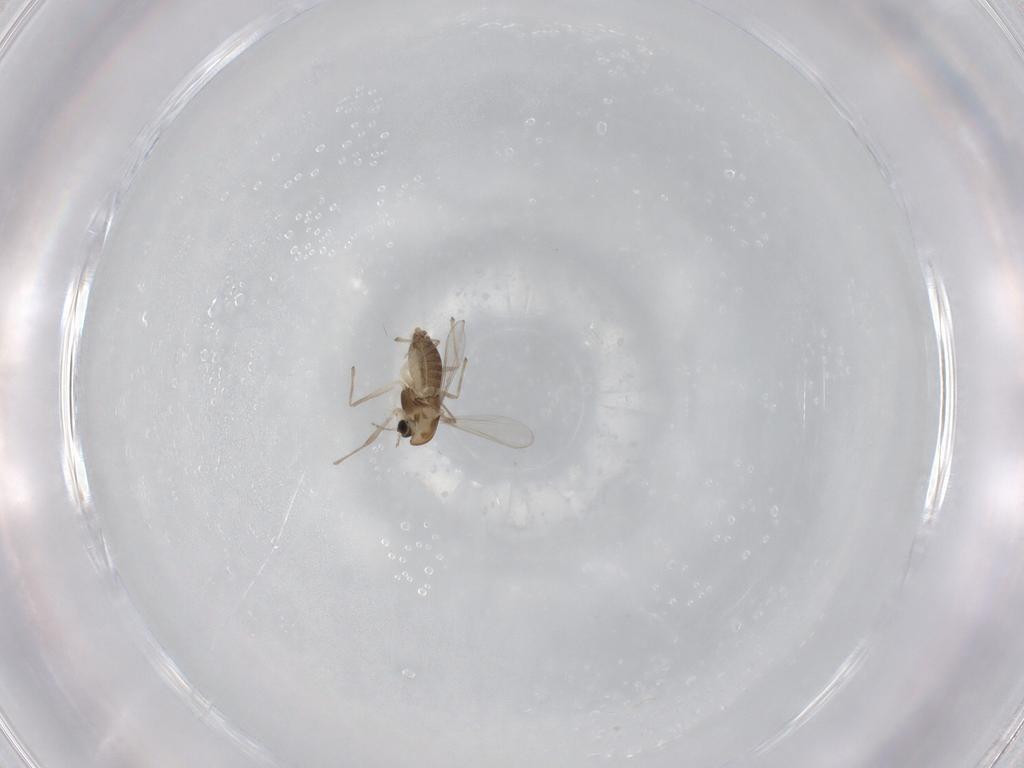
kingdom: Animalia
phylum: Arthropoda
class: Insecta
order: Diptera
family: Chironomidae
